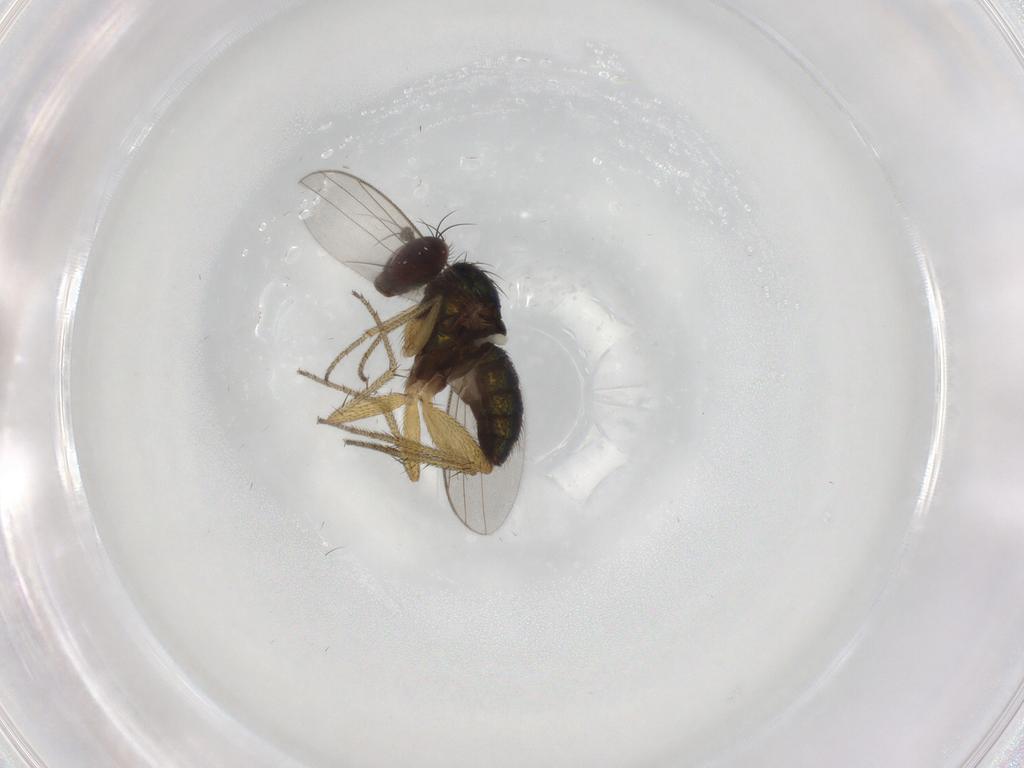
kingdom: Animalia
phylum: Arthropoda
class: Insecta
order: Diptera
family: Dolichopodidae
